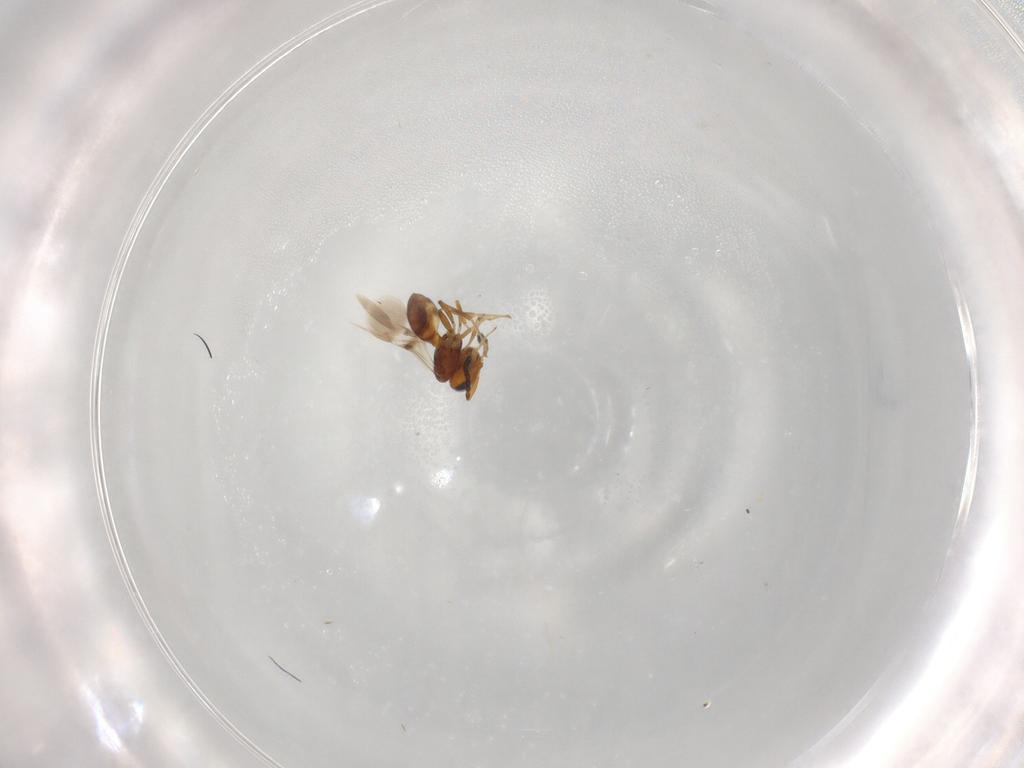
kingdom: Animalia
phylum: Arthropoda
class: Insecta
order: Hymenoptera
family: Scelionidae
